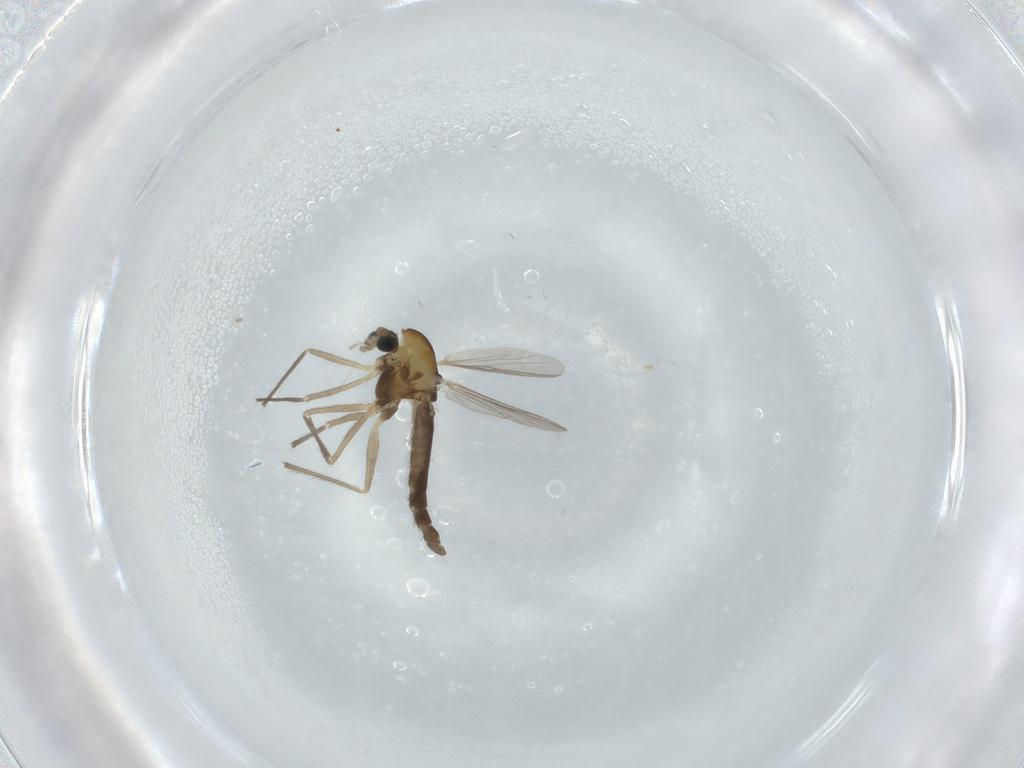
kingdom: Animalia
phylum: Arthropoda
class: Insecta
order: Diptera
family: Chironomidae
